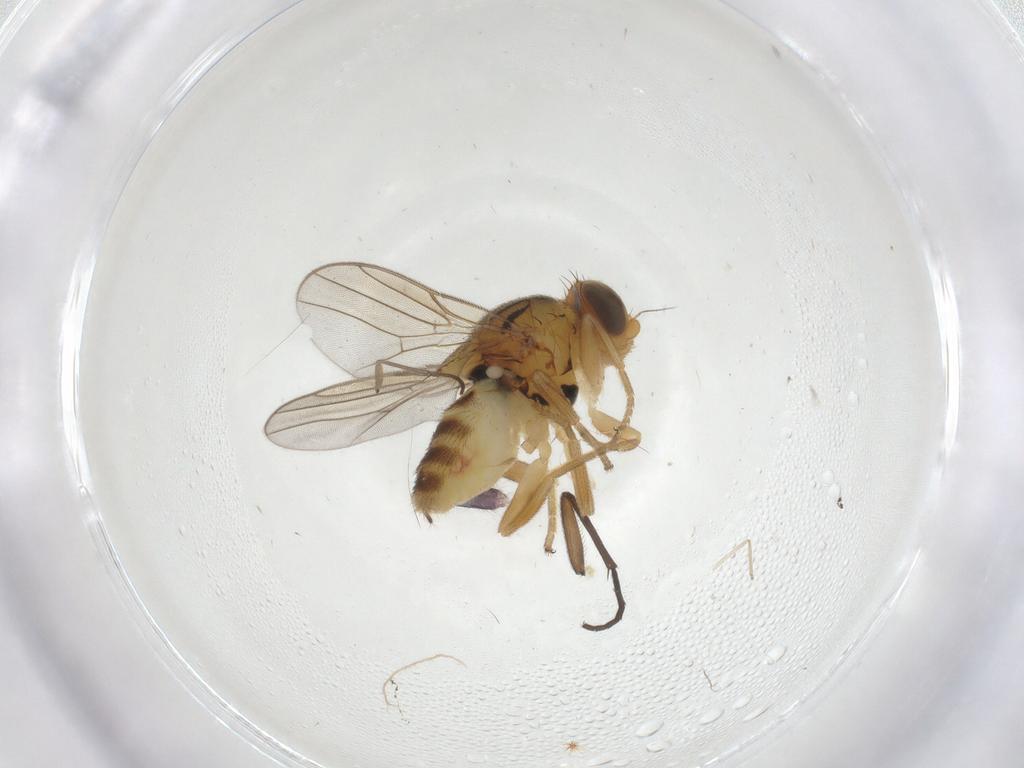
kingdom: Animalia
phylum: Arthropoda
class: Insecta
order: Diptera
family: Chloropidae
